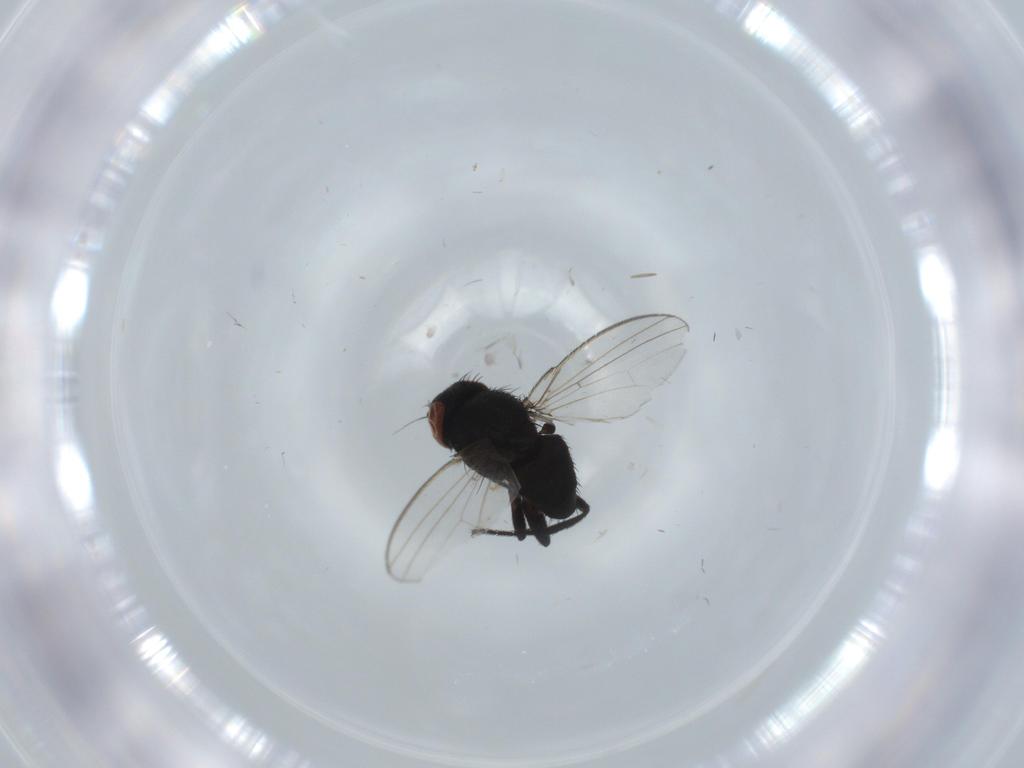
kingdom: Animalia
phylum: Arthropoda
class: Insecta
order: Diptera
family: Milichiidae
